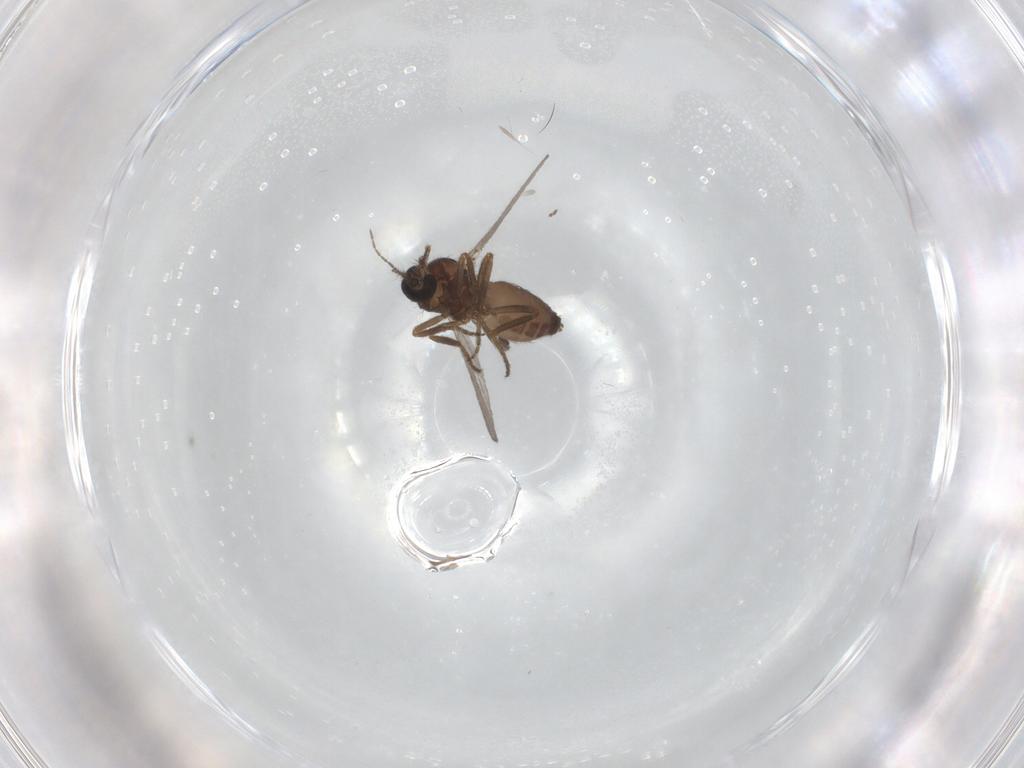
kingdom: Animalia
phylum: Arthropoda
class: Insecta
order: Diptera
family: Ceratopogonidae
